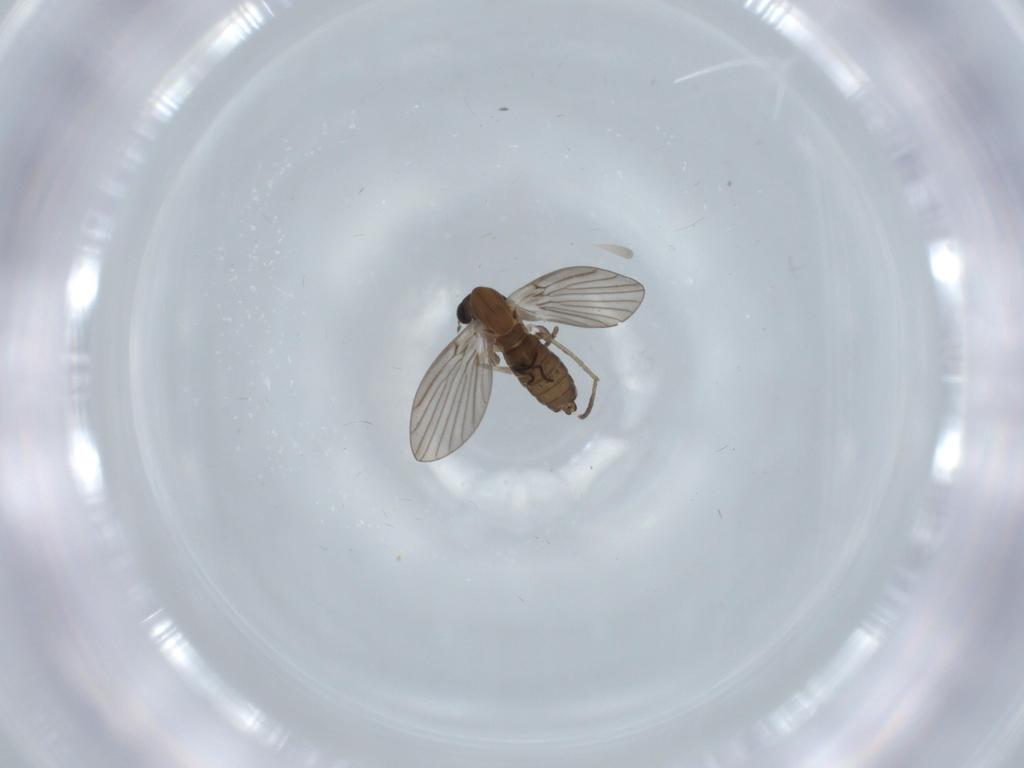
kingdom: Animalia
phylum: Arthropoda
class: Insecta
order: Diptera
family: Psychodidae
